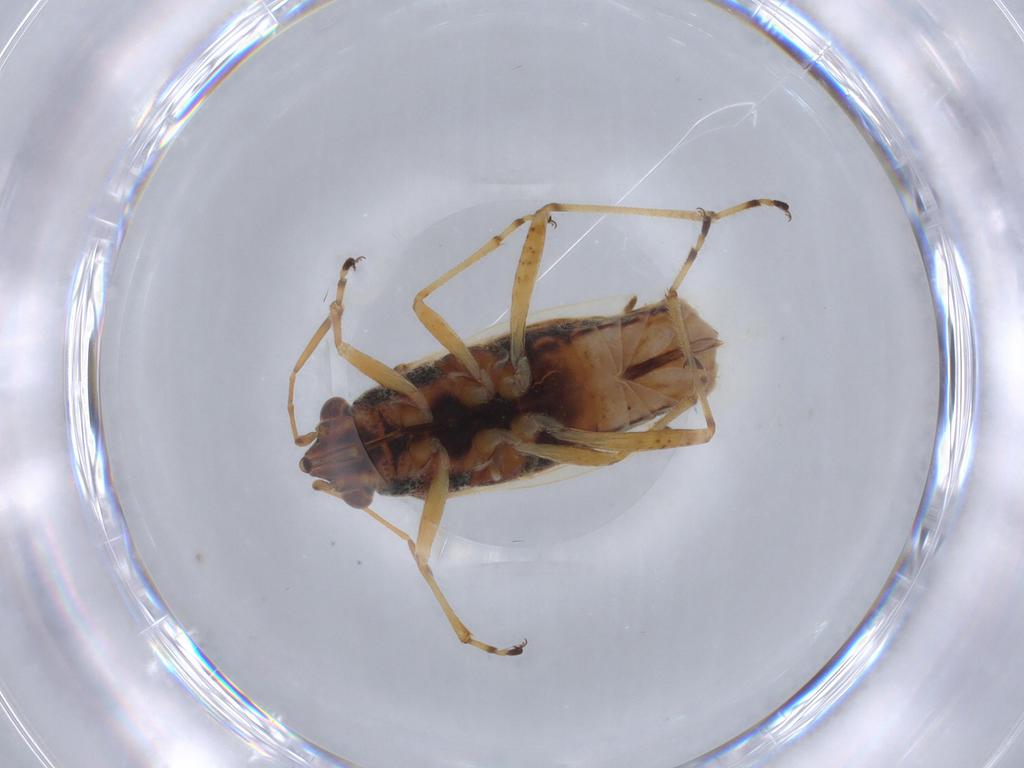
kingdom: Animalia
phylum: Arthropoda
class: Insecta
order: Hemiptera
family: Lygaeidae
